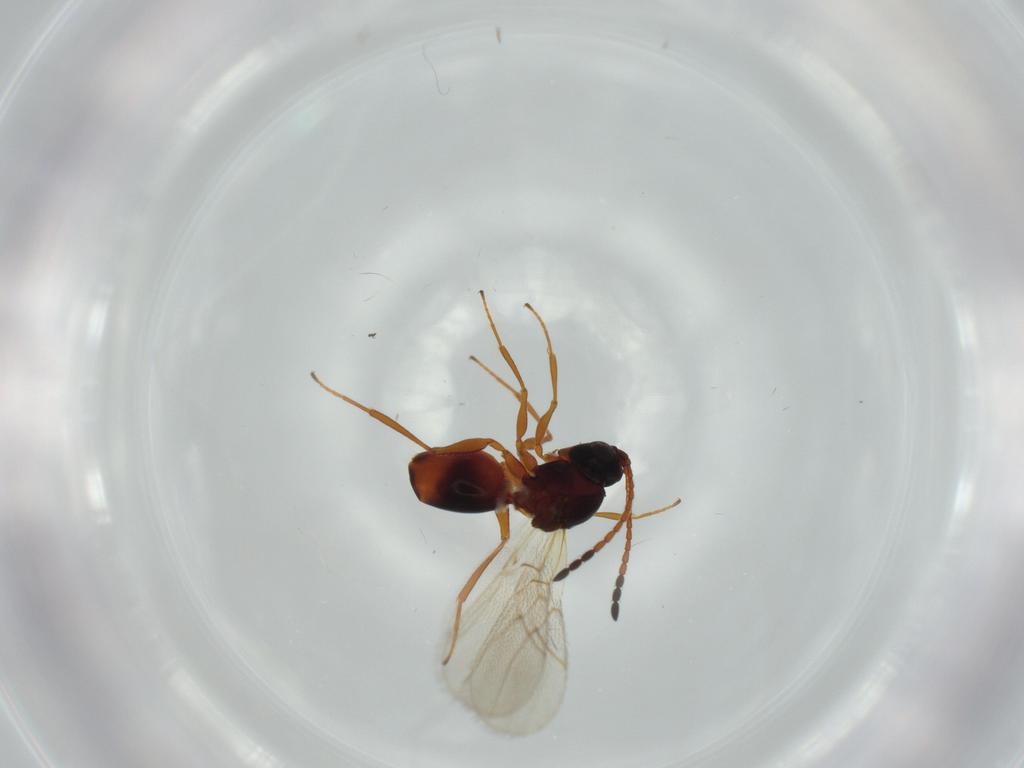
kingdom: Animalia
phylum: Arthropoda
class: Insecta
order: Hymenoptera
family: Figitidae
